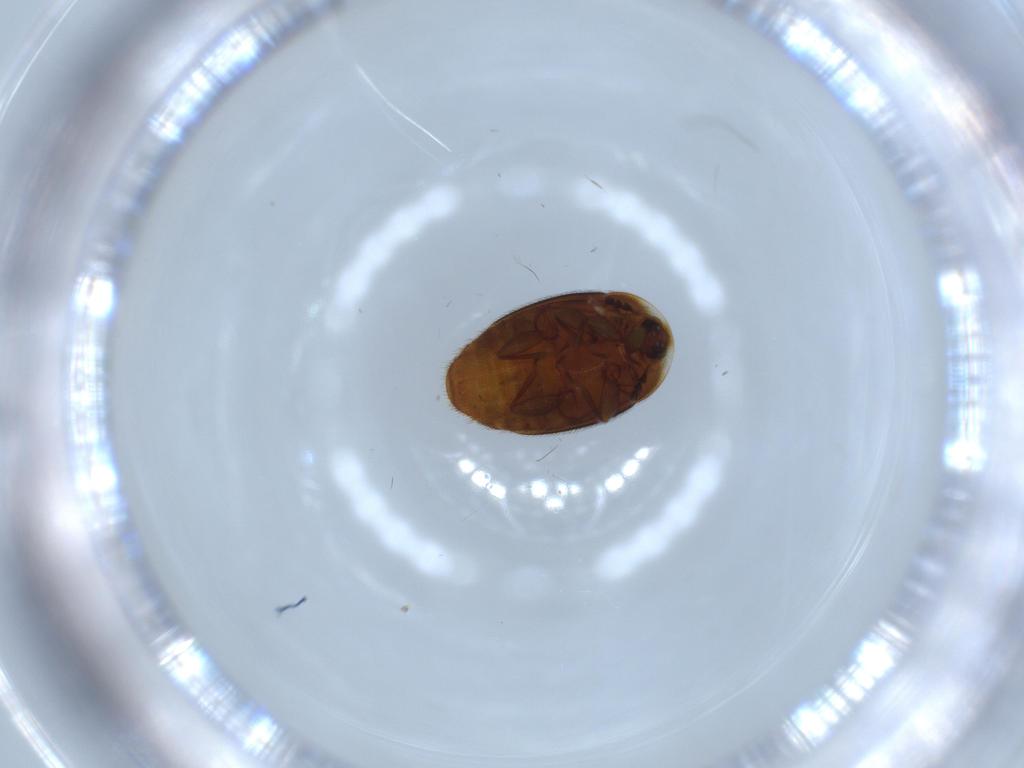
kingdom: Animalia
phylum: Arthropoda
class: Insecta
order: Coleoptera
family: Corylophidae
